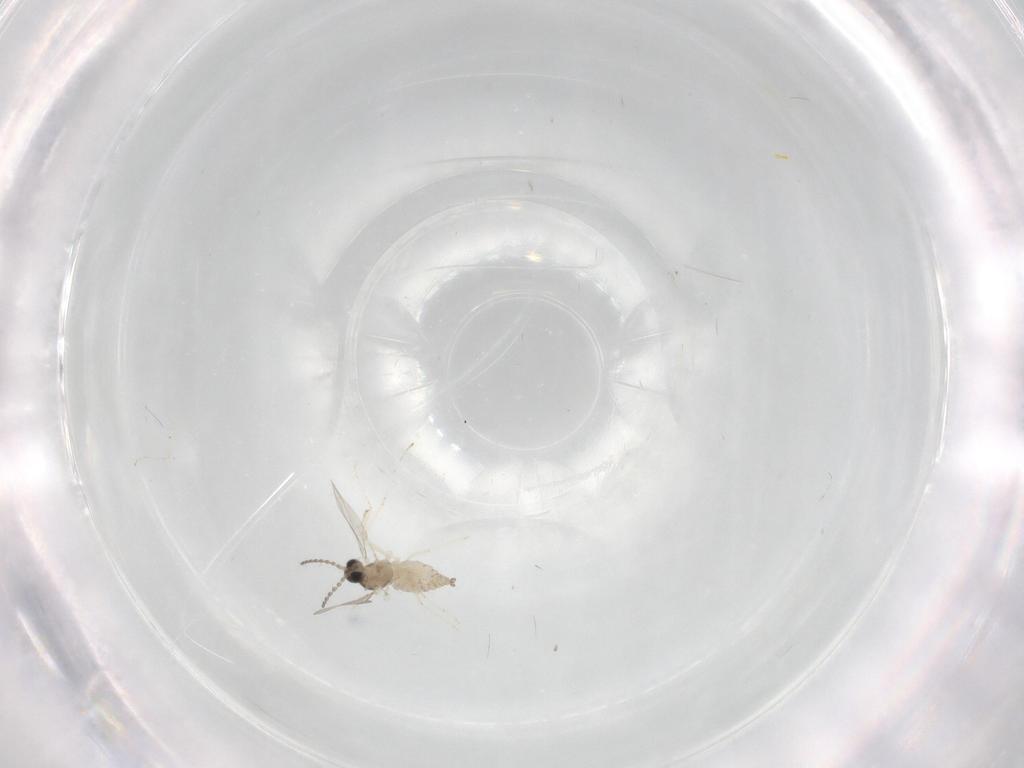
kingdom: Animalia
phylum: Arthropoda
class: Insecta
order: Diptera
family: Cecidomyiidae
